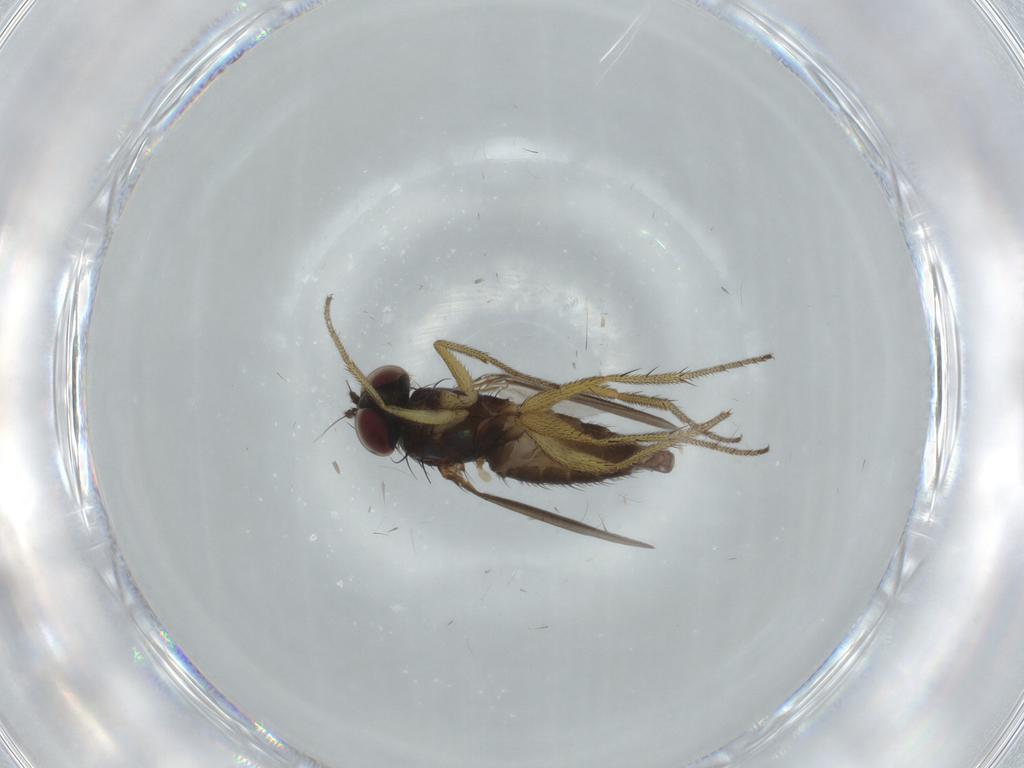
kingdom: Animalia
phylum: Arthropoda
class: Insecta
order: Diptera
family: Dolichopodidae
